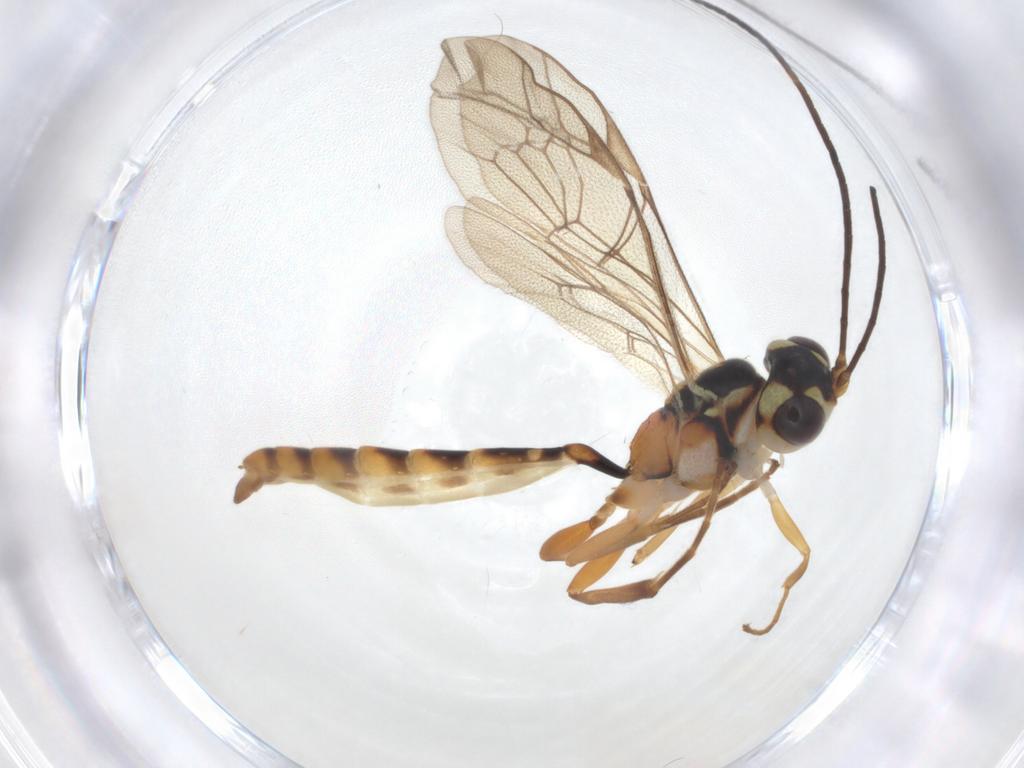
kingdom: Animalia
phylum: Arthropoda
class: Insecta
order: Hymenoptera
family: Ichneumonidae
